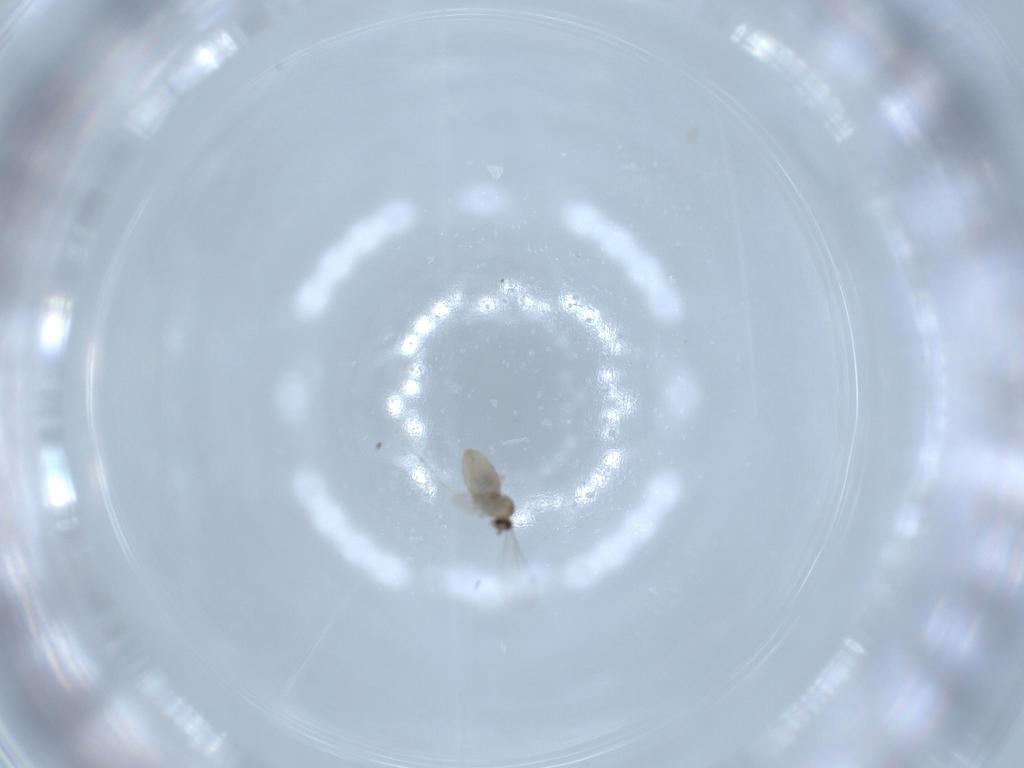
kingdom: Animalia
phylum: Arthropoda
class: Insecta
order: Diptera
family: Cecidomyiidae
